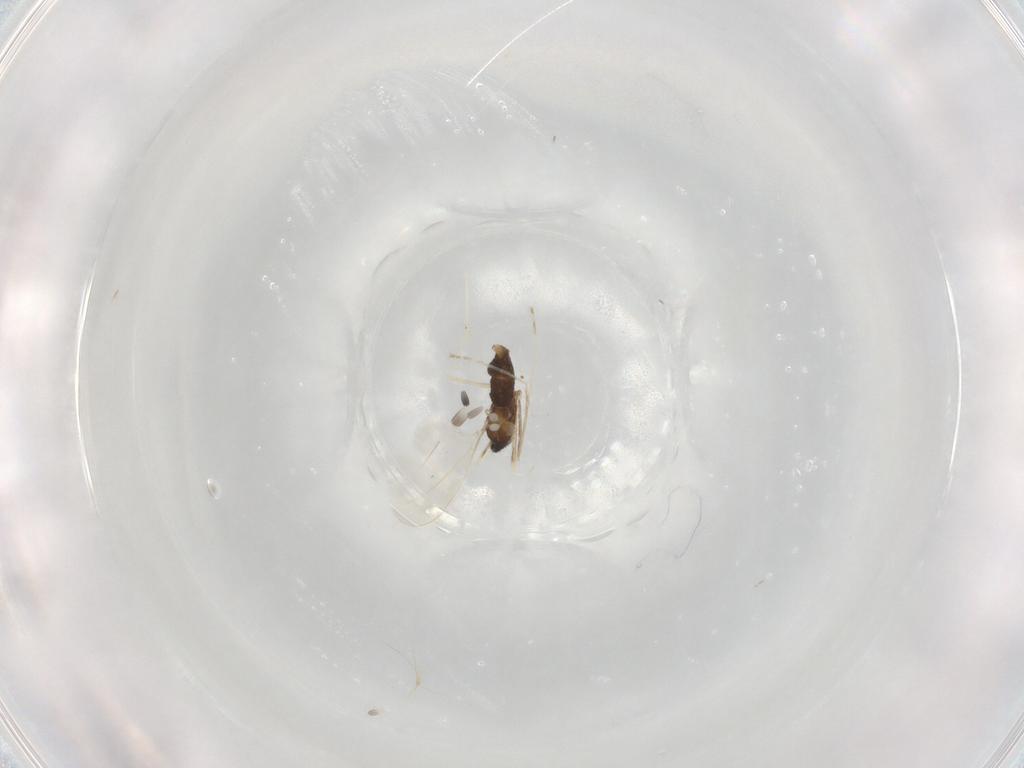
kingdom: Animalia
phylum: Arthropoda
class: Insecta
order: Diptera
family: Cecidomyiidae
